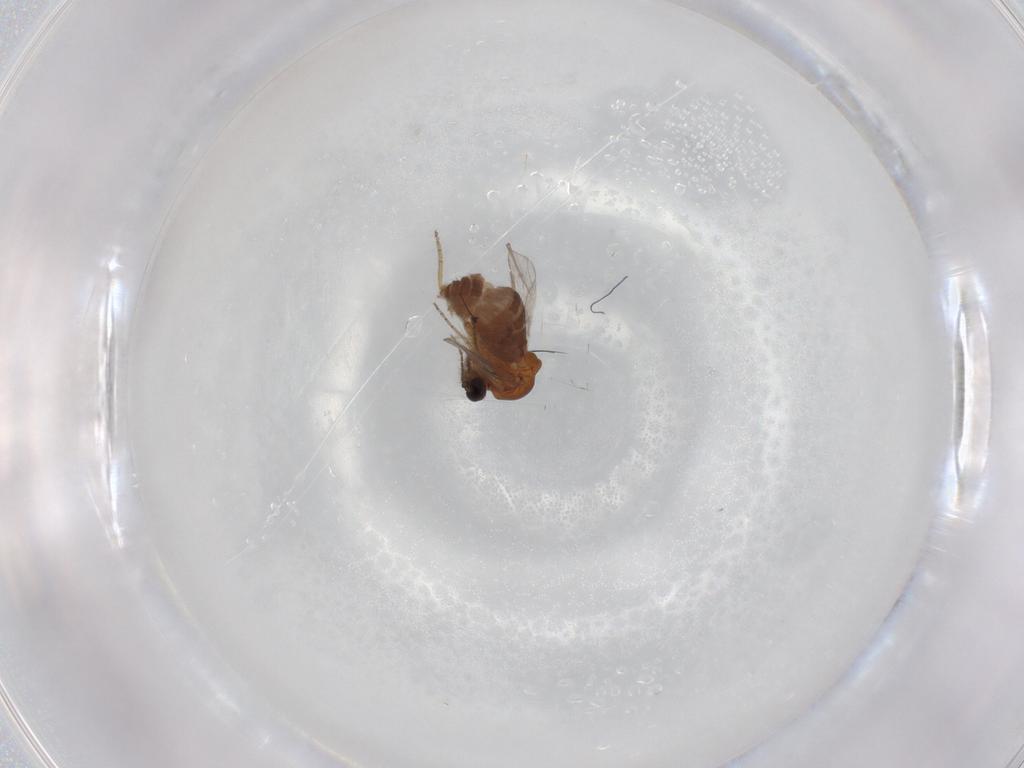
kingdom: Animalia
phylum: Arthropoda
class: Insecta
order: Diptera
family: Ceratopogonidae
